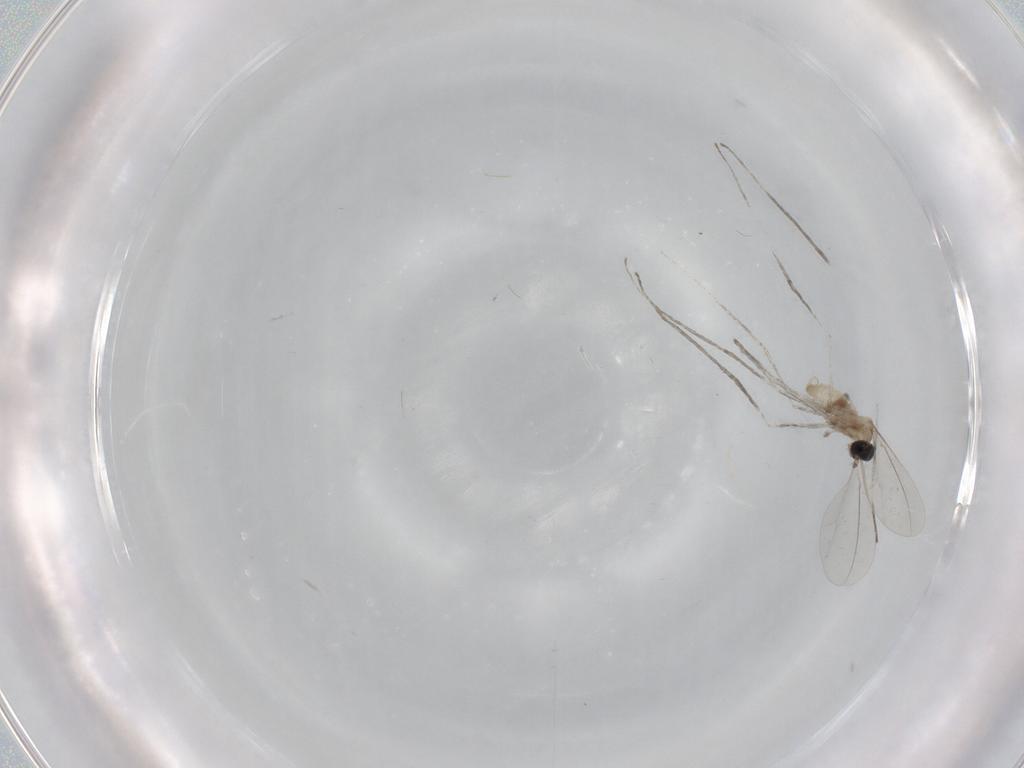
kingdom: Animalia
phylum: Arthropoda
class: Insecta
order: Diptera
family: Cecidomyiidae
